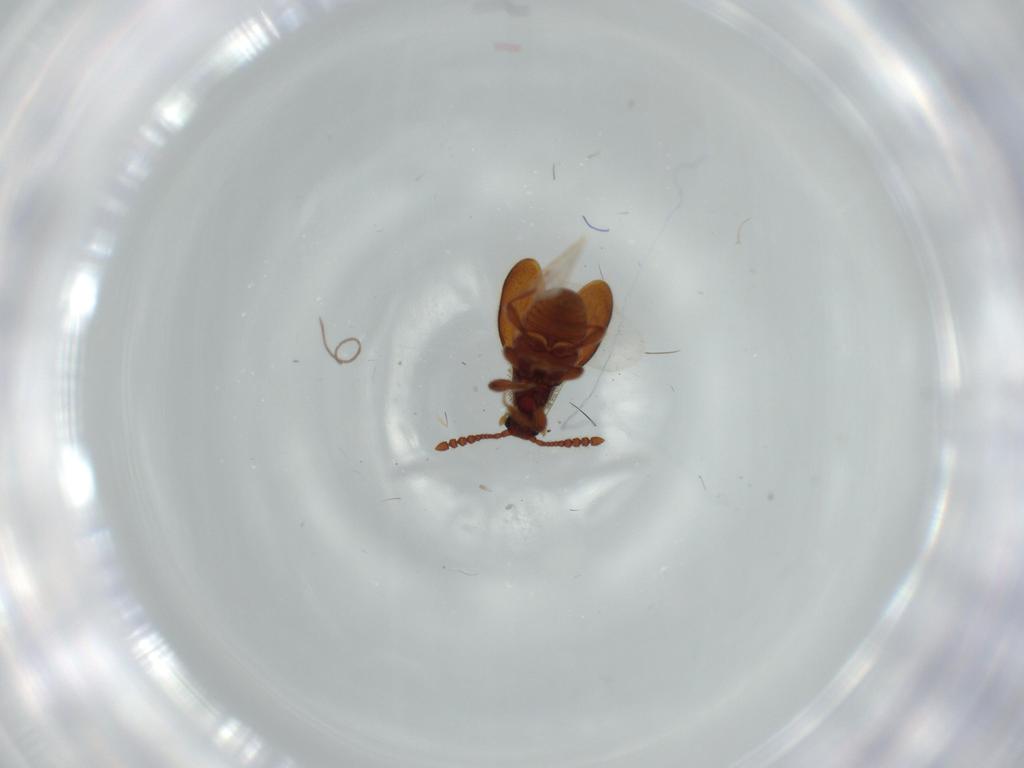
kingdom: Animalia
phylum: Arthropoda
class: Insecta
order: Coleoptera
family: Staphylinidae
